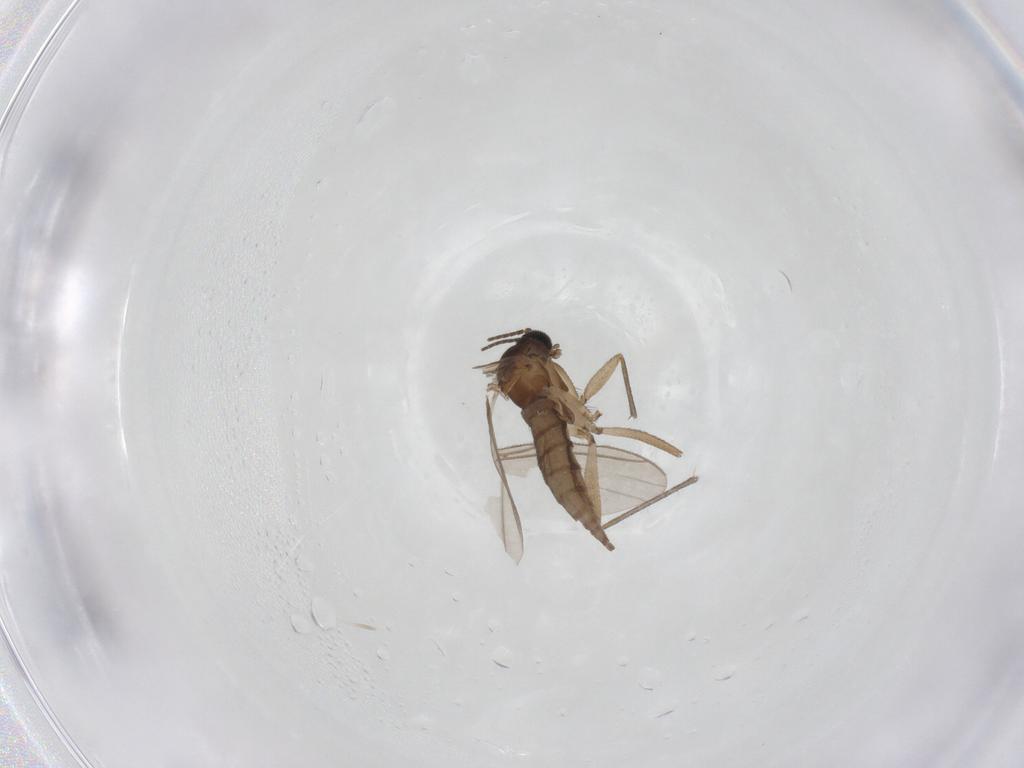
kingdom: Animalia
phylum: Arthropoda
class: Insecta
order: Diptera
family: Sciaridae
